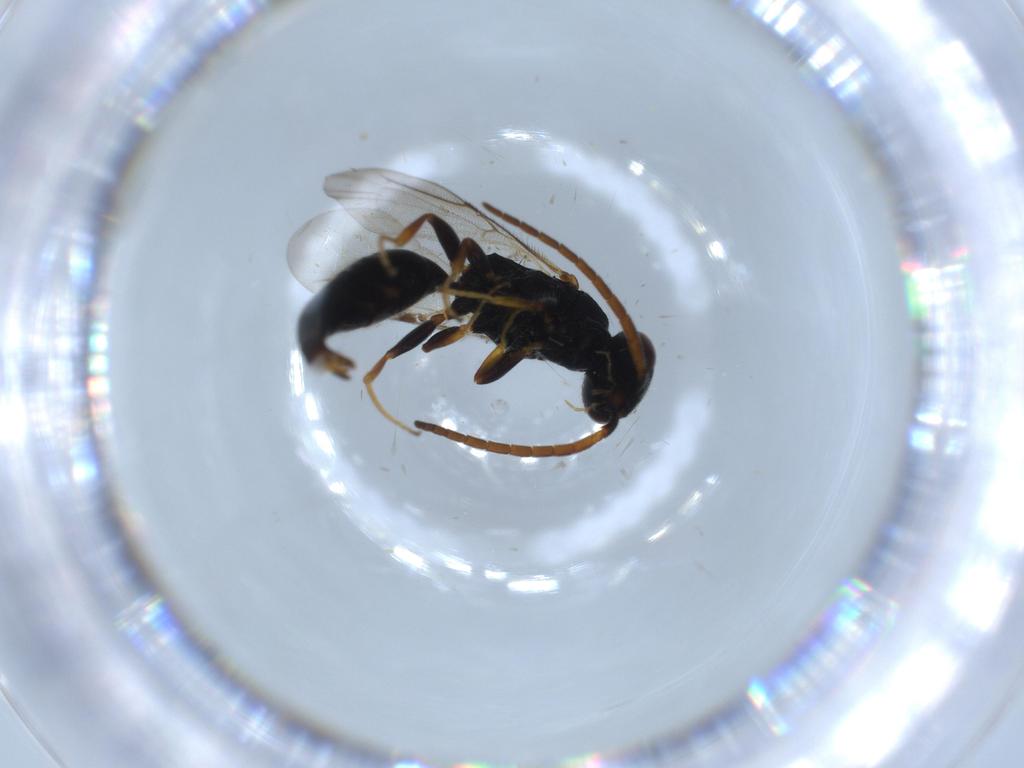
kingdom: Animalia
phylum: Arthropoda
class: Insecta
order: Hymenoptera
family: Bethylidae
